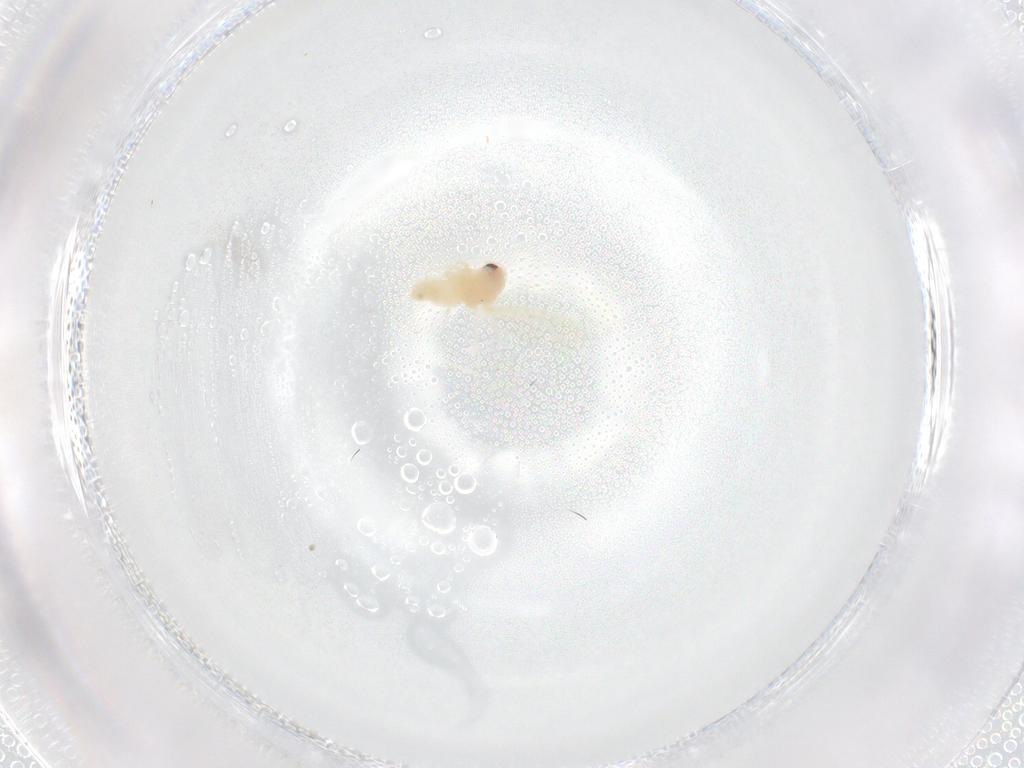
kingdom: Animalia
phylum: Arthropoda
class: Insecta
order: Hemiptera
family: Aleyrodidae
